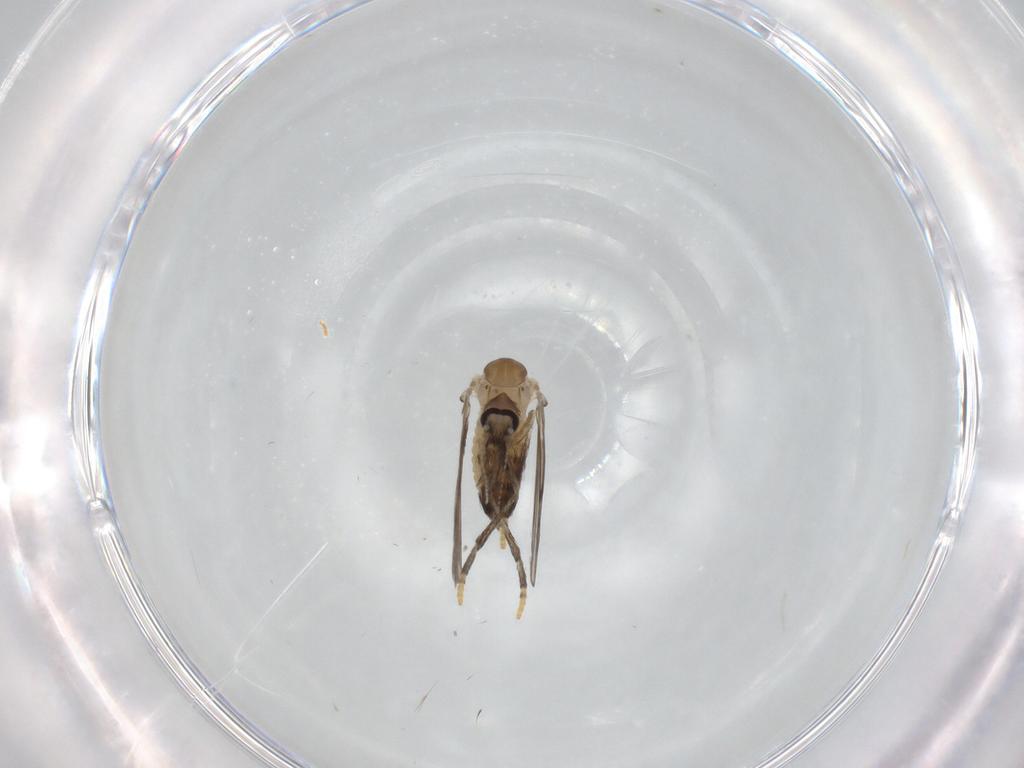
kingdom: Animalia
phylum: Arthropoda
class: Insecta
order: Diptera
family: Psychodidae
